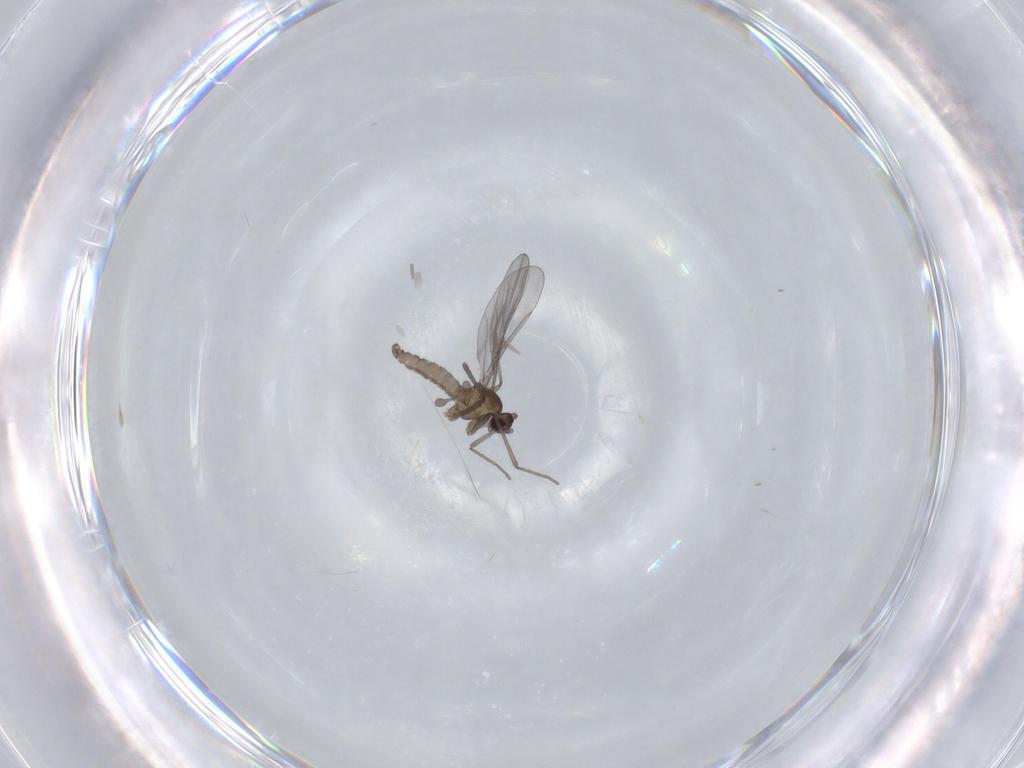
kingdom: Animalia
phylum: Arthropoda
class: Insecta
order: Diptera
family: Cecidomyiidae
